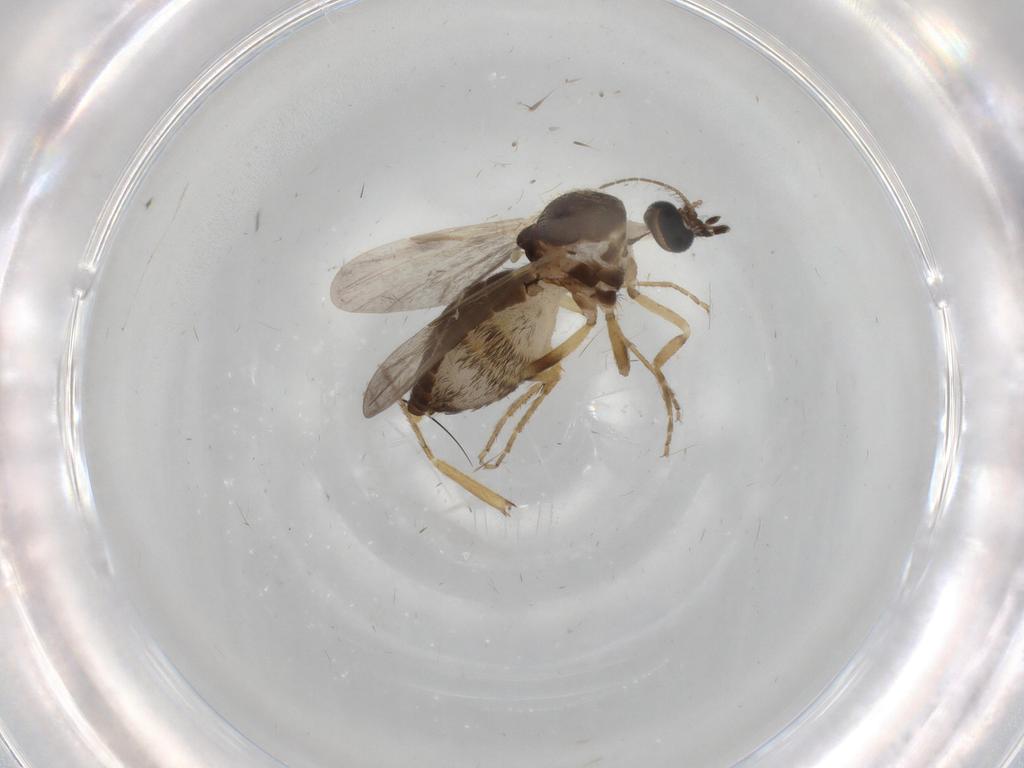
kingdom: Animalia
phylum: Arthropoda
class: Insecta
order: Diptera
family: Ceratopogonidae
